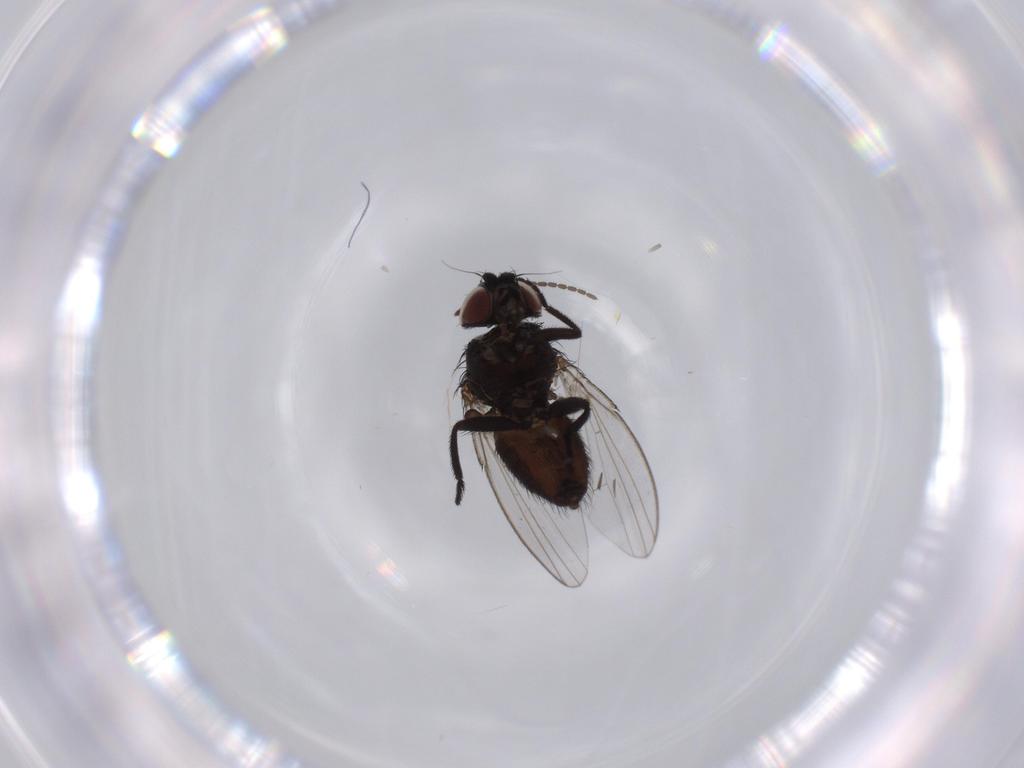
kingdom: Animalia
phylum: Arthropoda
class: Insecta
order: Diptera
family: Milichiidae
